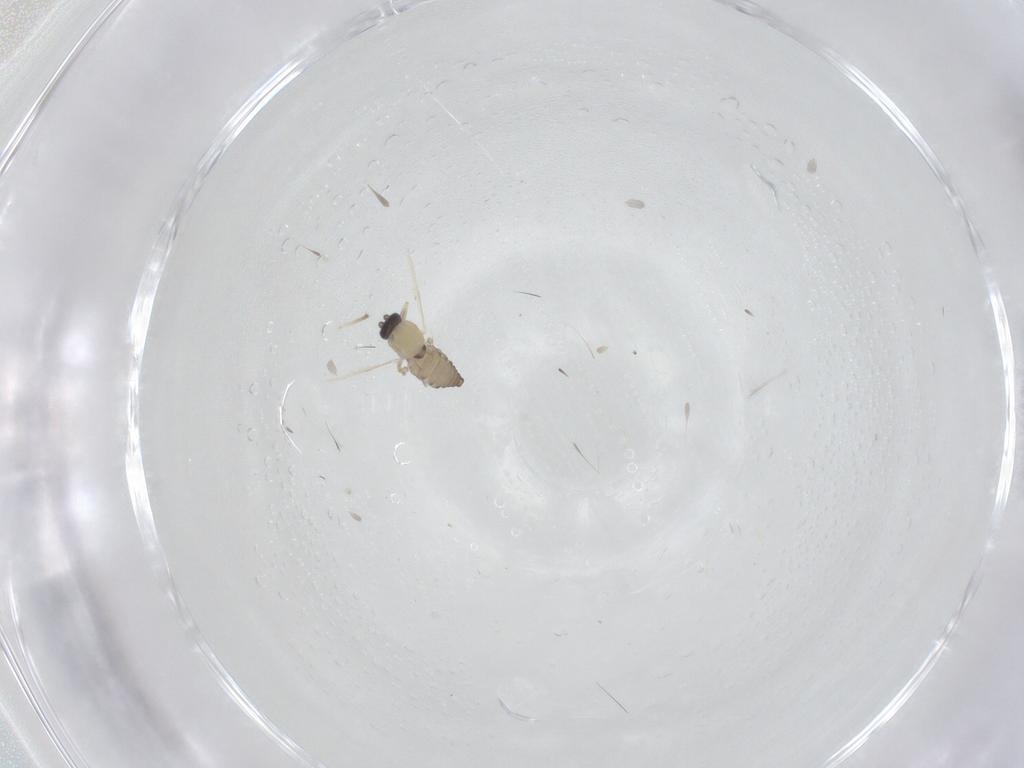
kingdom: Animalia
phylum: Arthropoda
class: Insecta
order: Diptera
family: Ceratopogonidae
